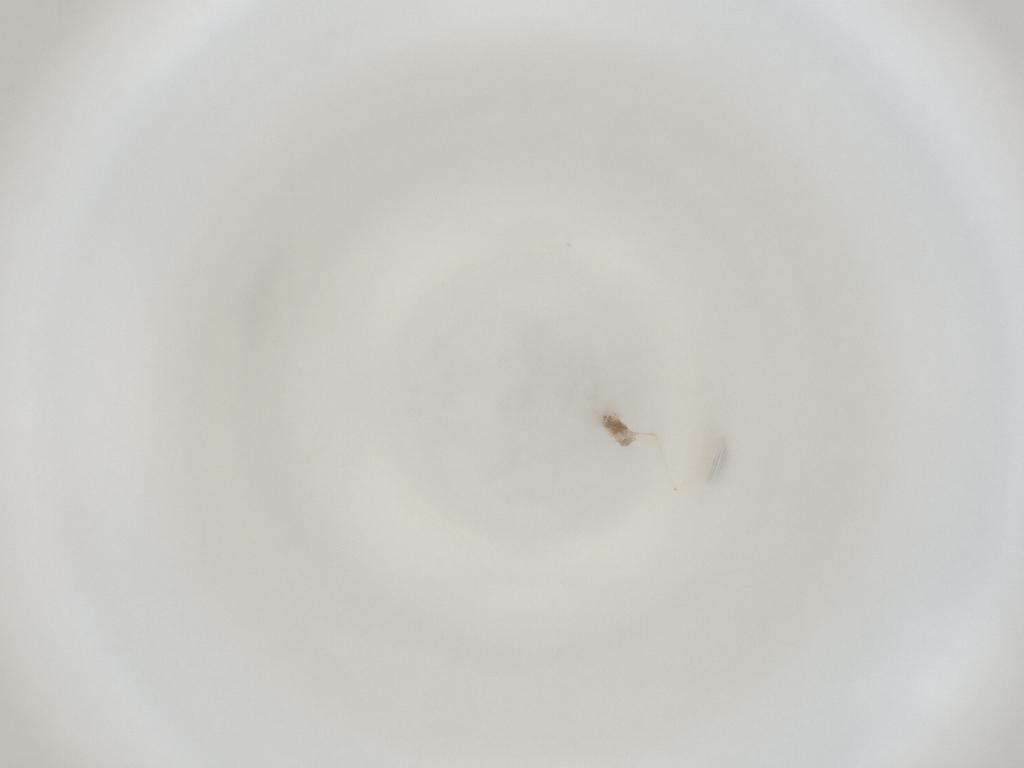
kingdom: Animalia
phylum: Arthropoda
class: Insecta
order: Diptera
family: Cecidomyiidae
